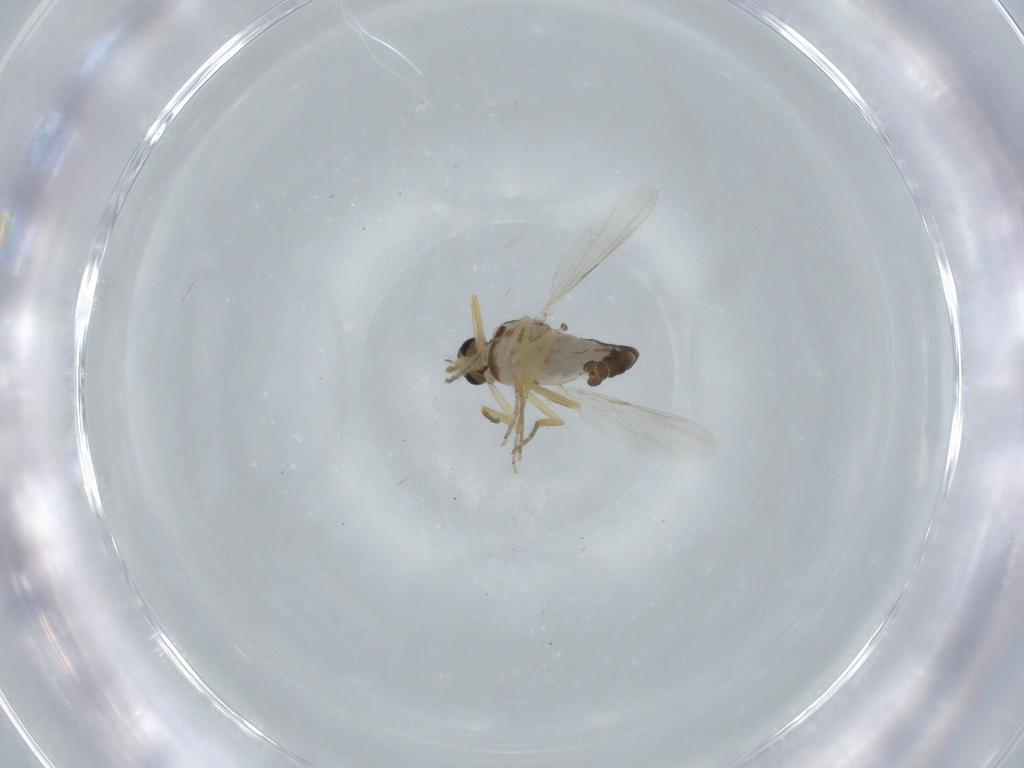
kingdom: Animalia
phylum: Arthropoda
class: Insecta
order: Diptera
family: Ceratopogonidae
